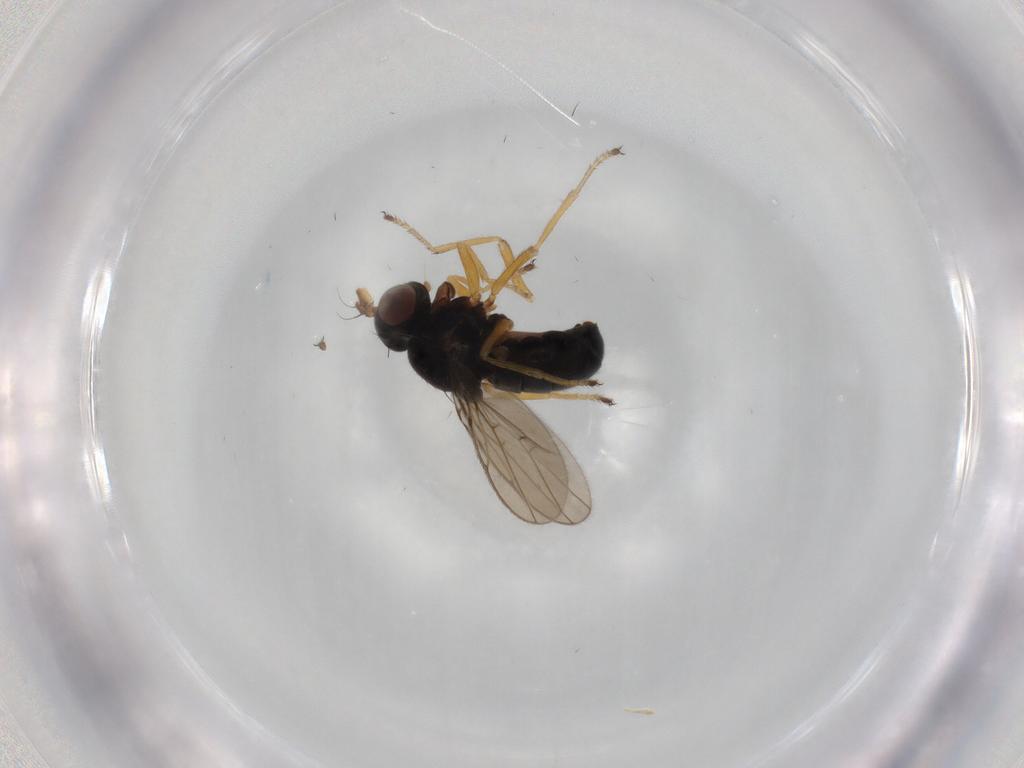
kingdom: Animalia
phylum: Arthropoda
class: Insecta
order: Diptera
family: Ephydridae
